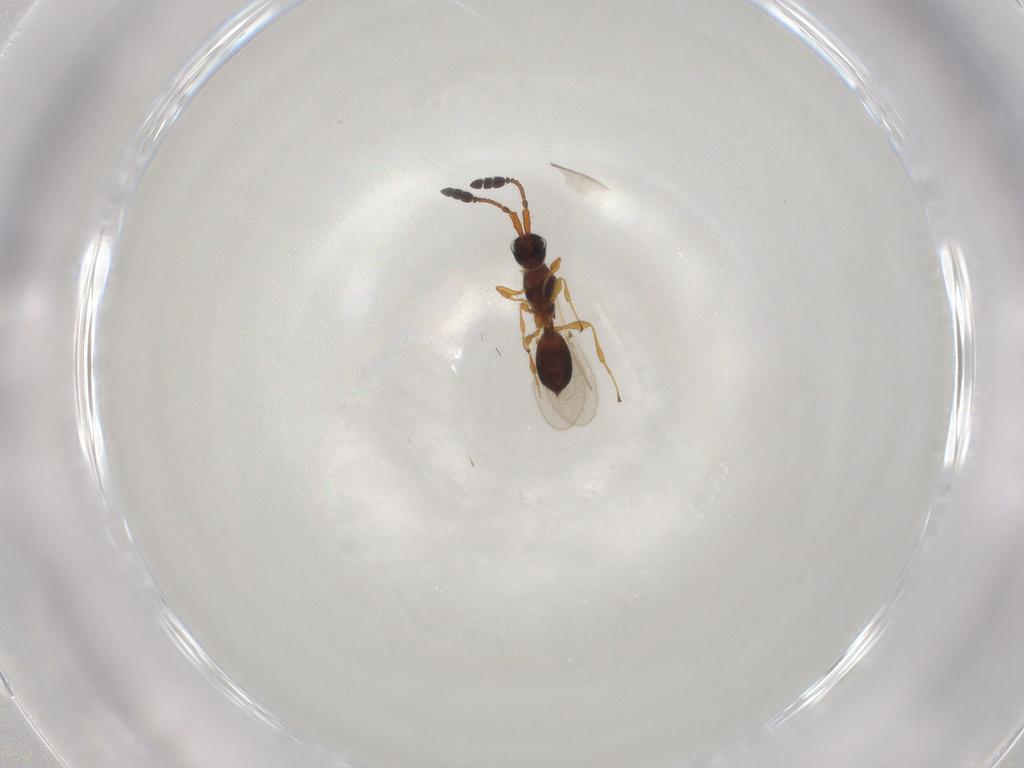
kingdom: Animalia
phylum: Arthropoda
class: Insecta
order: Hymenoptera
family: Diapriidae
